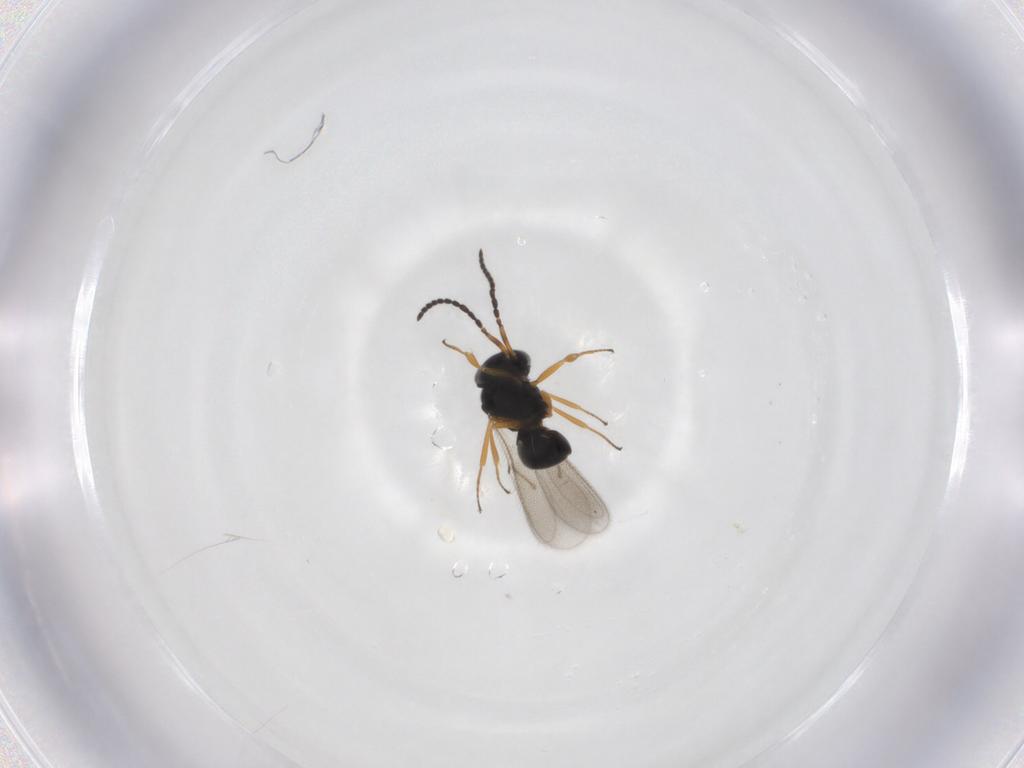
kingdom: Animalia
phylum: Arthropoda
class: Insecta
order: Hymenoptera
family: Scelionidae
